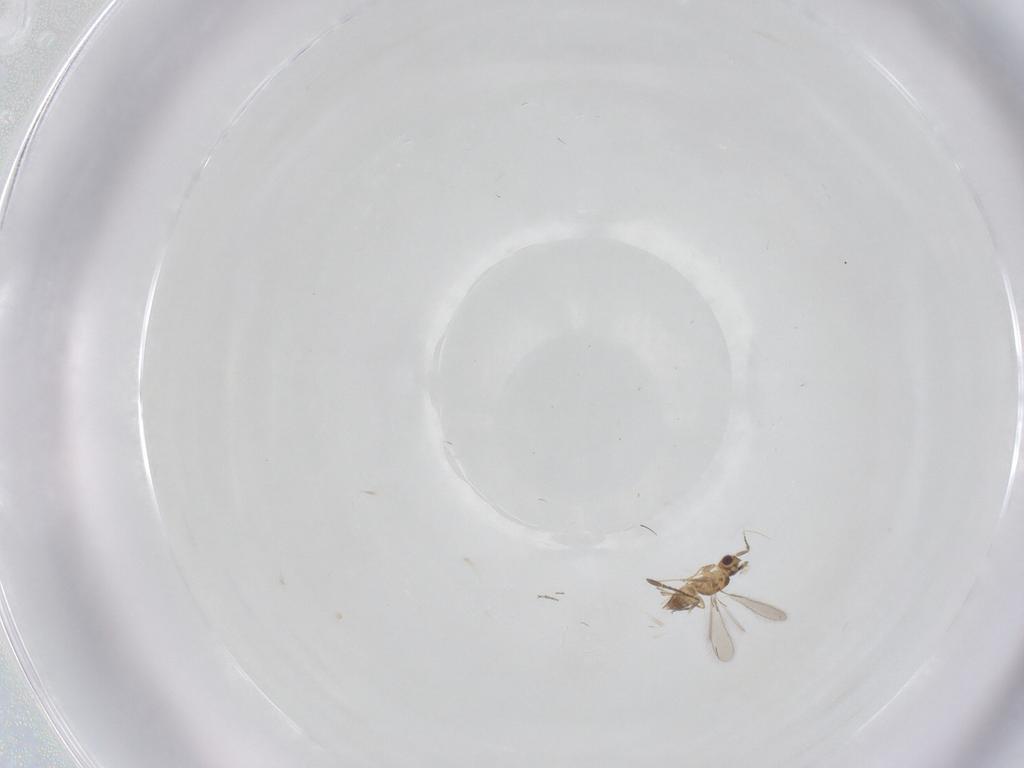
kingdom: Animalia
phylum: Arthropoda
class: Insecta
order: Hymenoptera
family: Mymaridae
